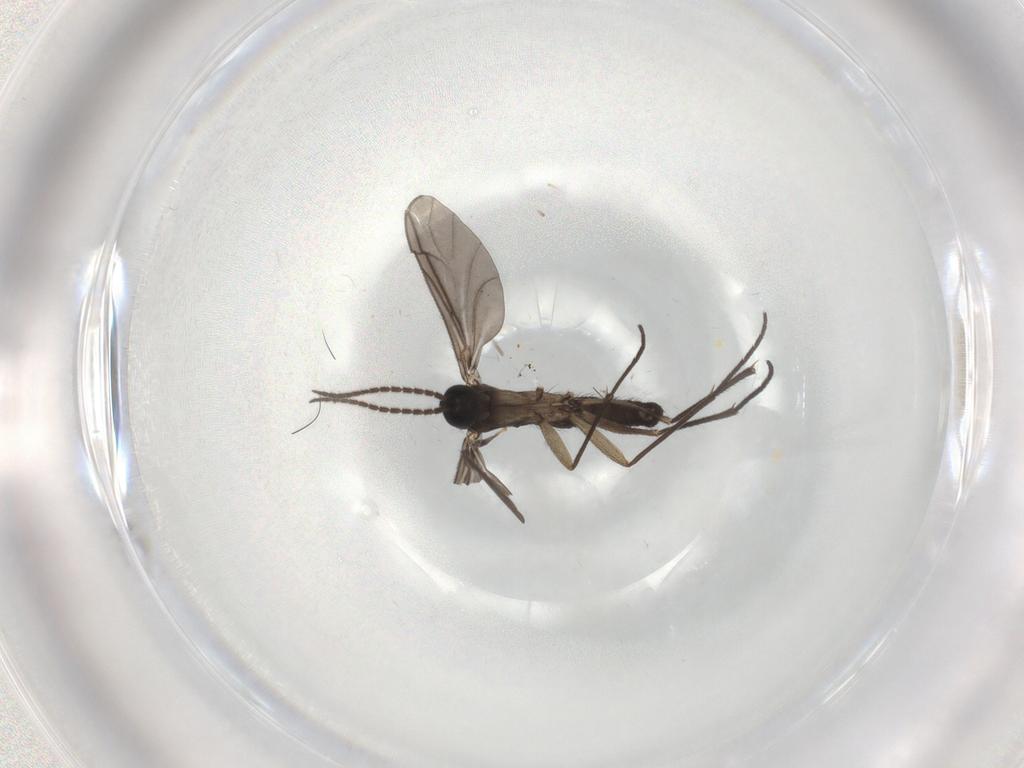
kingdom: Animalia
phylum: Arthropoda
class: Insecta
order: Diptera
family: Sciaridae
